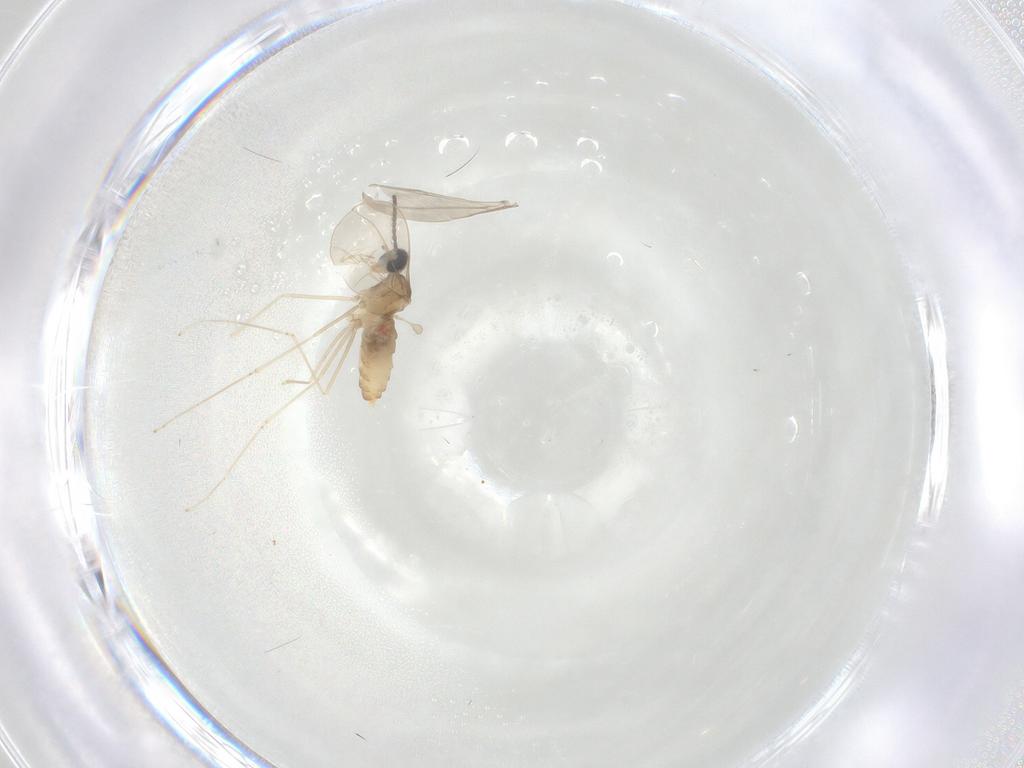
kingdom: Animalia
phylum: Arthropoda
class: Insecta
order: Diptera
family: Cecidomyiidae
